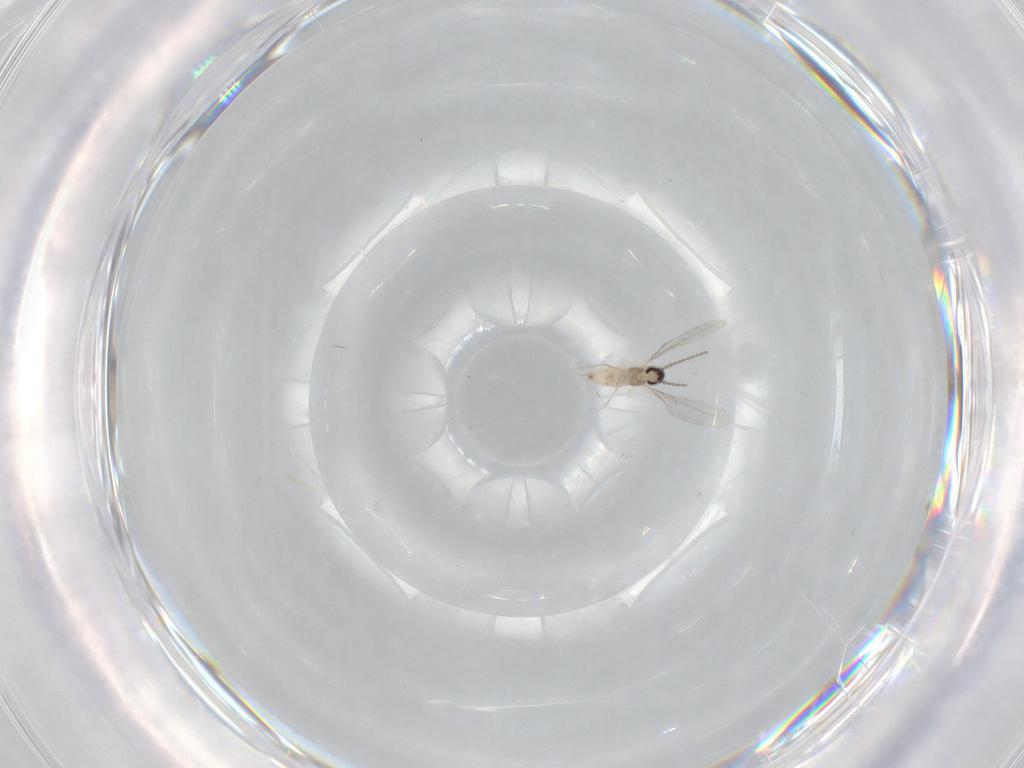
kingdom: Animalia
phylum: Arthropoda
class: Insecta
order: Diptera
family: Cecidomyiidae
